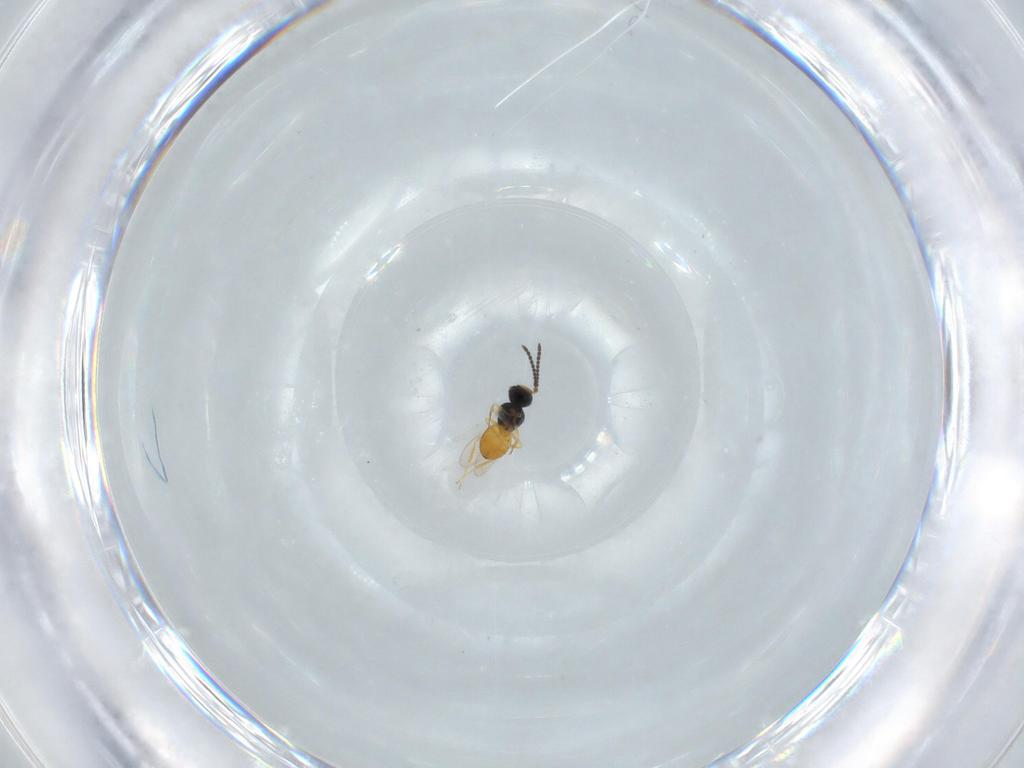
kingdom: Animalia
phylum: Arthropoda
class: Insecta
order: Hymenoptera
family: Scelionidae
